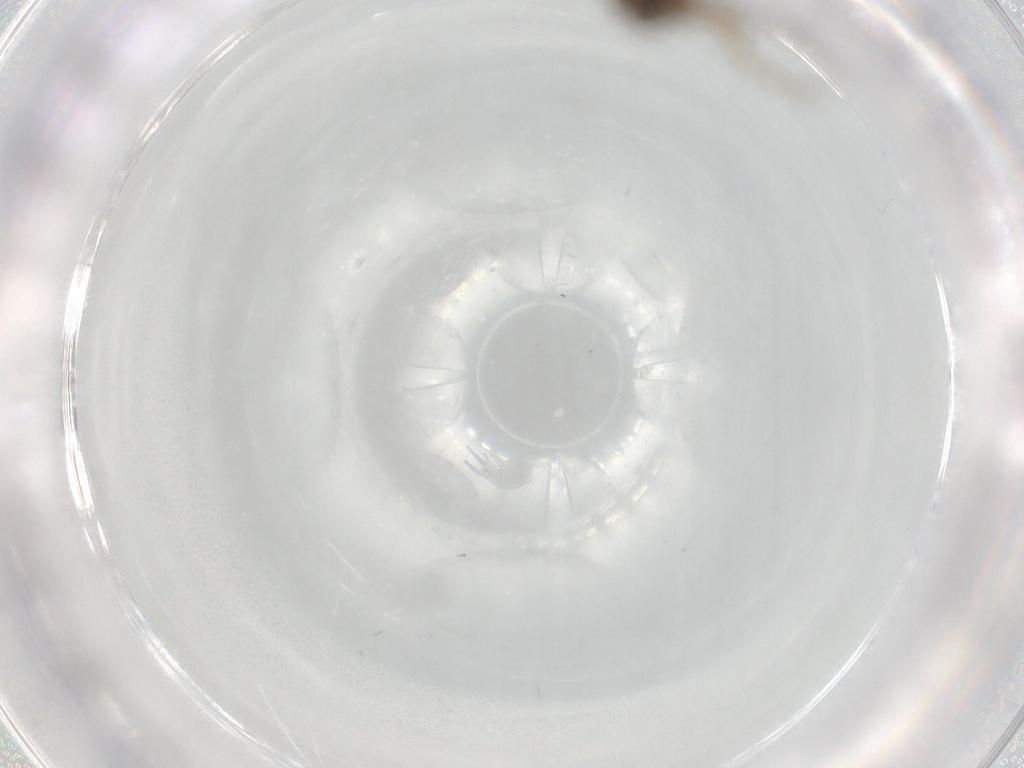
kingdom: Animalia
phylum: Arthropoda
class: Insecta
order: Diptera
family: Phoridae
